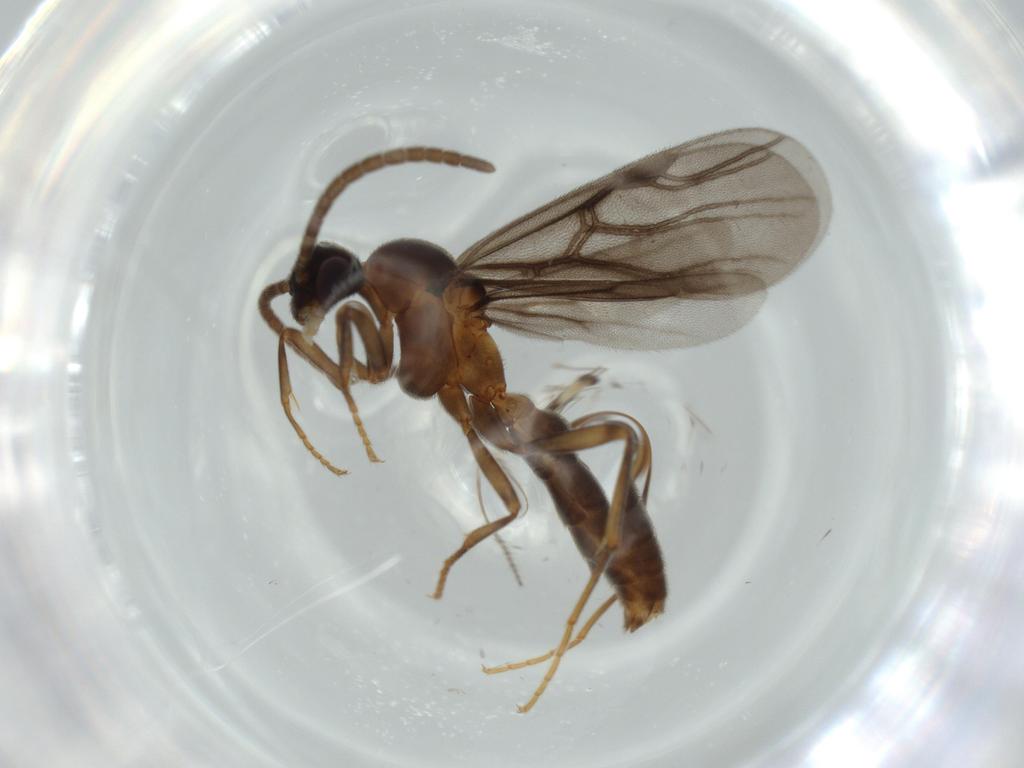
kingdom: Animalia
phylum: Arthropoda
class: Insecta
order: Hymenoptera
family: Formicidae
